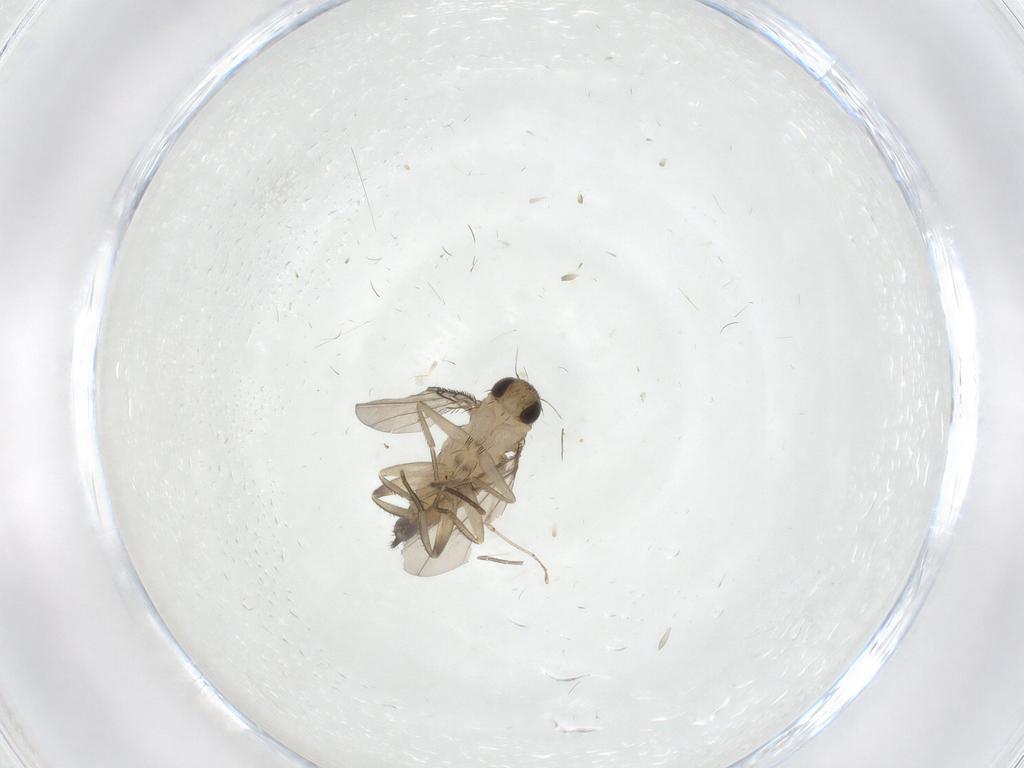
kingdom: Animalia
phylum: Arthropoda
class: Insecta
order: Diptera
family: Phoridae
